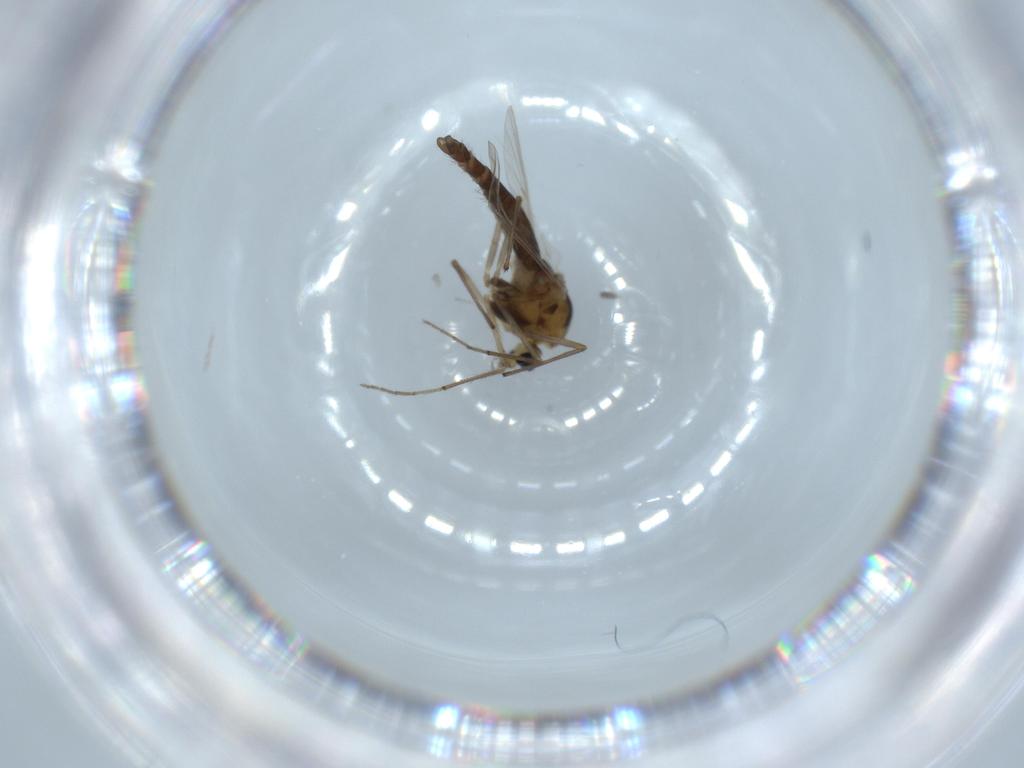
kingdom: Animalia
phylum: Arthropoda
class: Insecta
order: Diptera
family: Chironomidae
